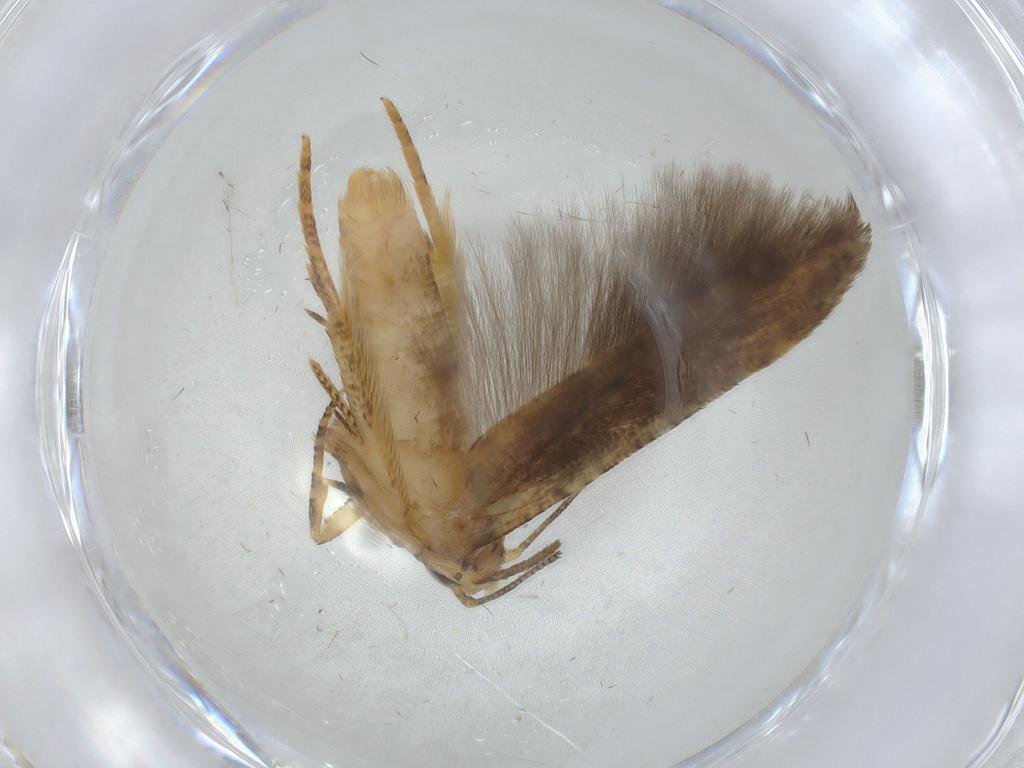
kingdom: Animalia
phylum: Arthropoda
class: Insecta
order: Lepidoptera
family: Cosmopterigidae
